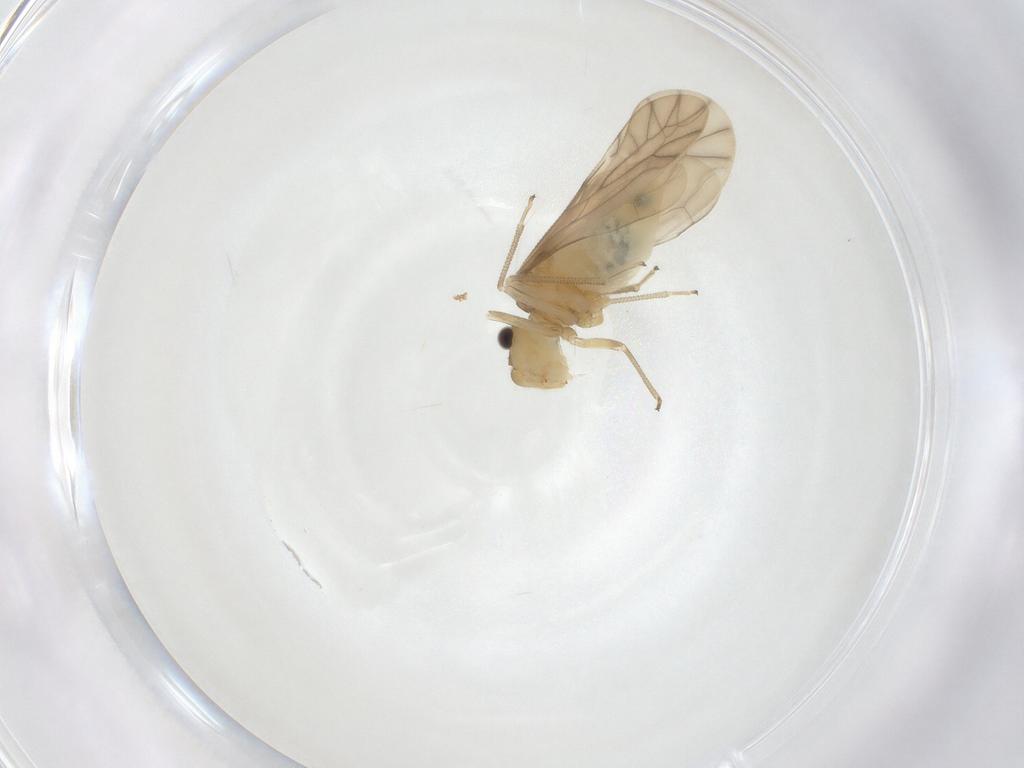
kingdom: Animalia
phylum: Arthropoda
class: Insecta
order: Psocodea
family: Caeciliusidae
